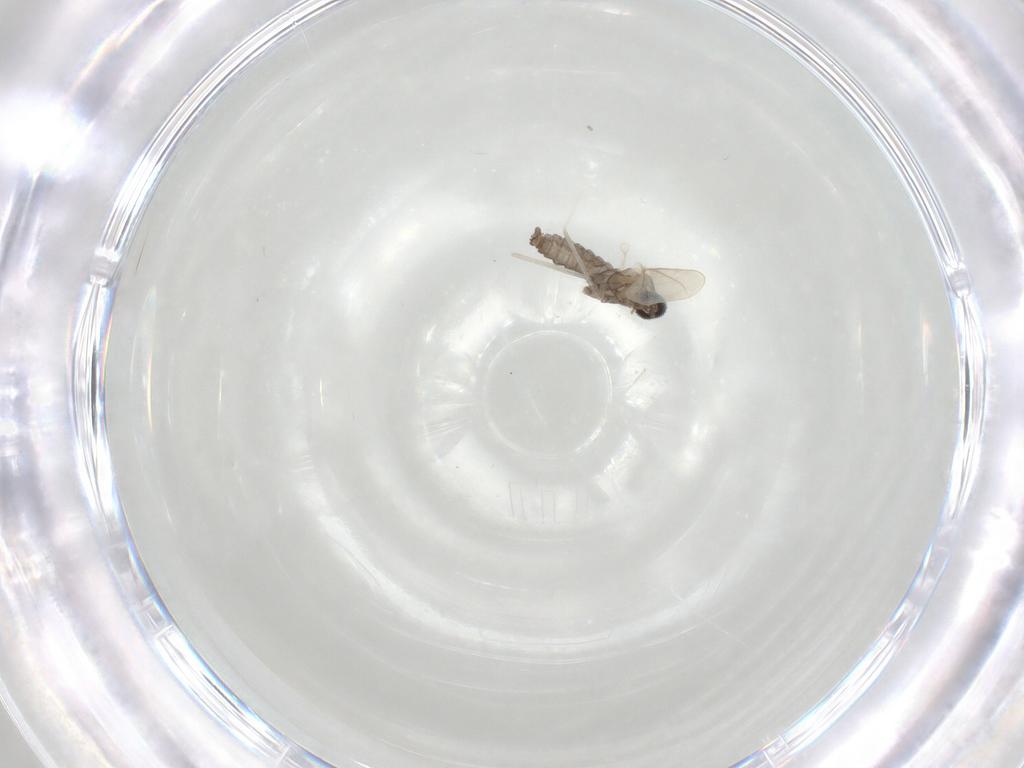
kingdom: Animalia
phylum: Arthropoda
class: Insecta
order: Diptera
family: Cecidomyiidae
